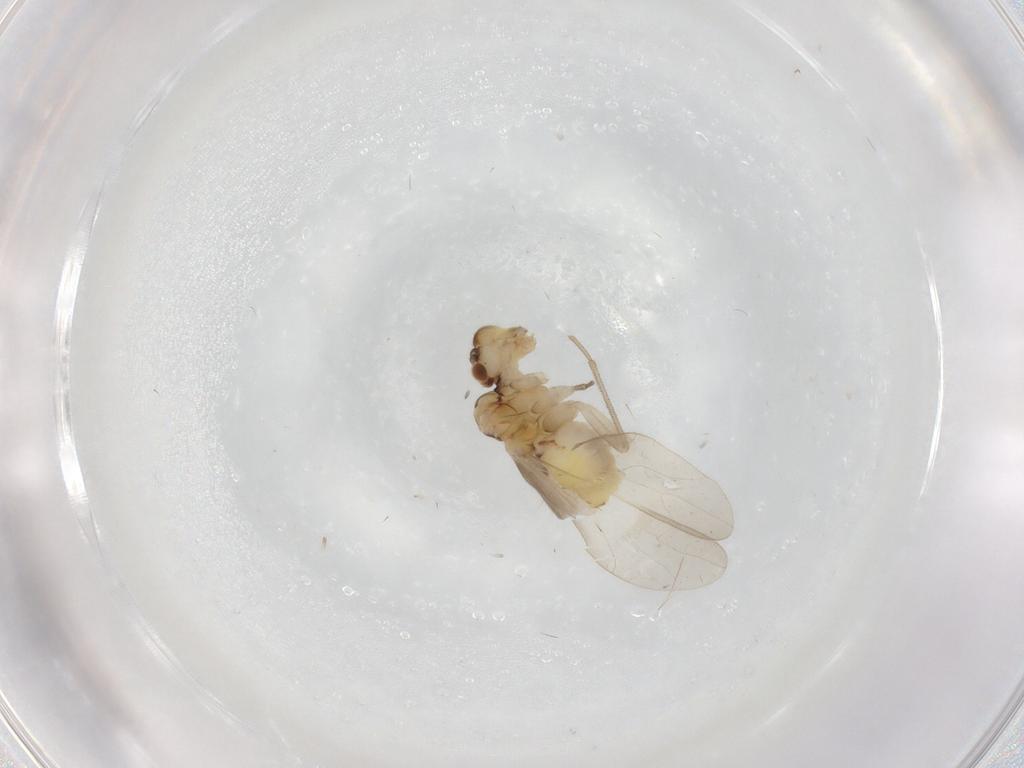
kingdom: Animalia
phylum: Arthropoda
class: Insecta
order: Psocodea
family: Caeciliusidae
